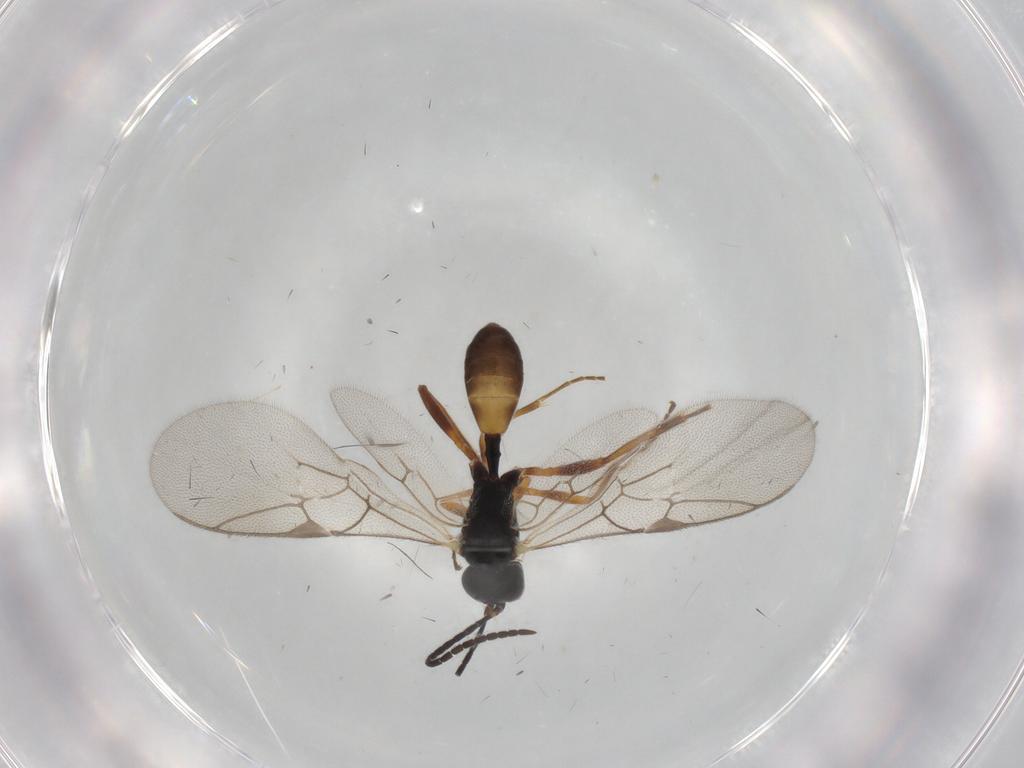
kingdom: Animalia
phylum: Arthropoda
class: Insecta
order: Hymenoptera
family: Ichneumonidae
